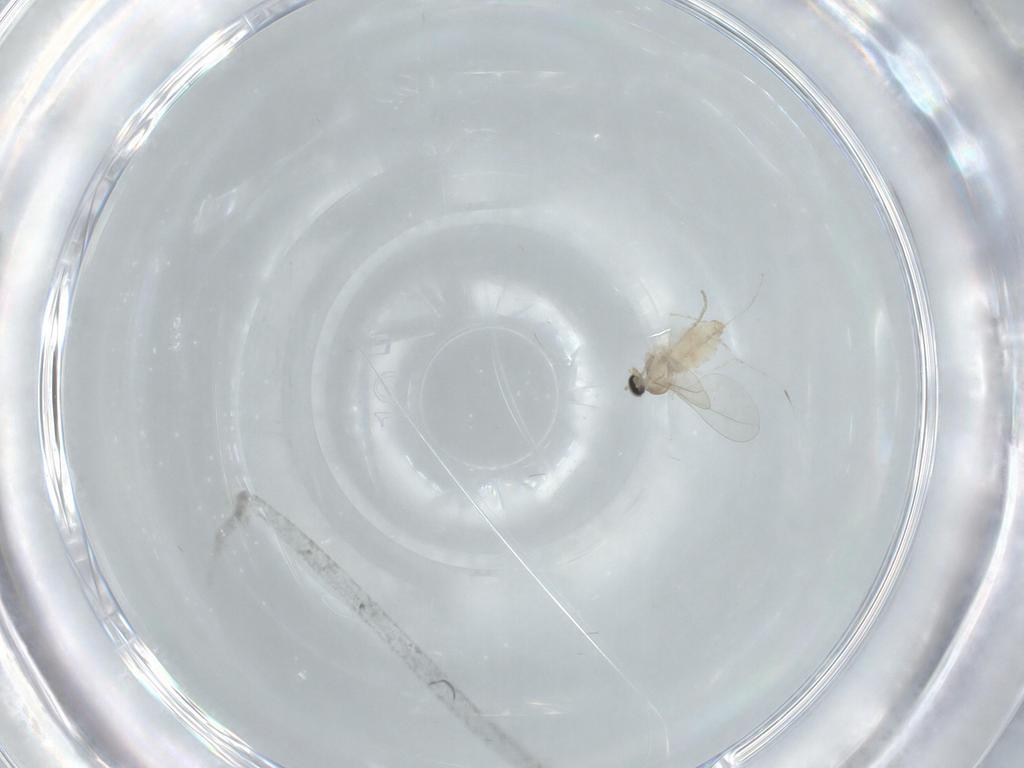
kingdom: Animalia
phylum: Arthropoda
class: Insecta
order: Diptera
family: Cecidomyiidae
